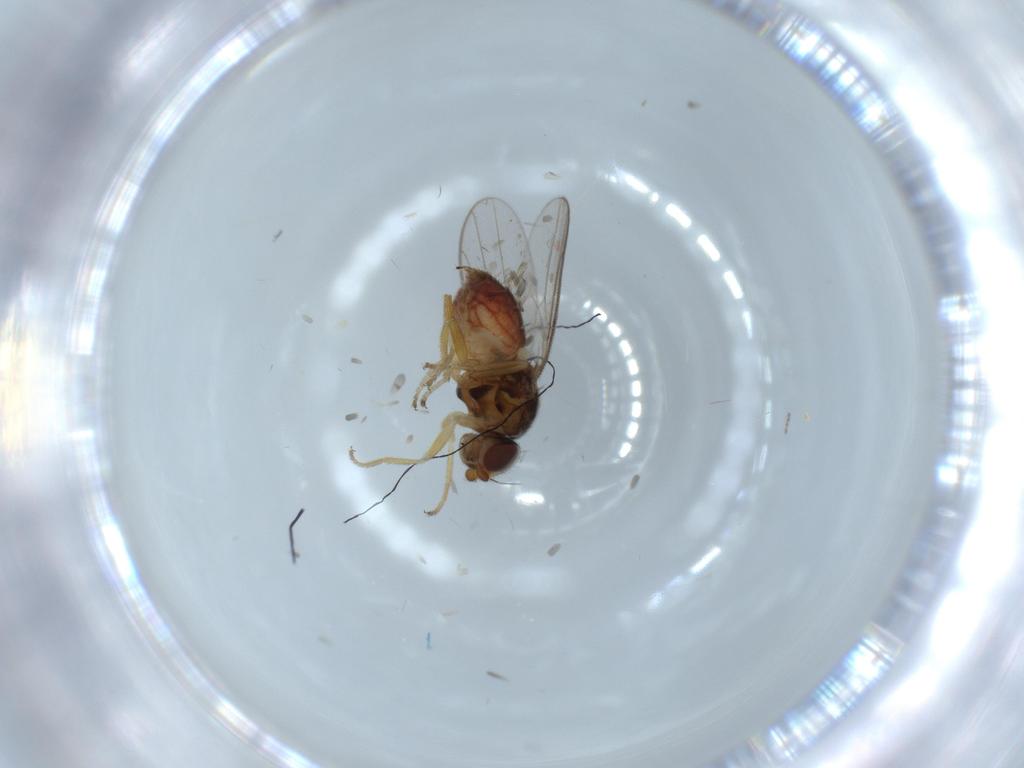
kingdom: Animalia
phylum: Arthropoda
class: Insecta
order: Diptera
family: Chloropidae
